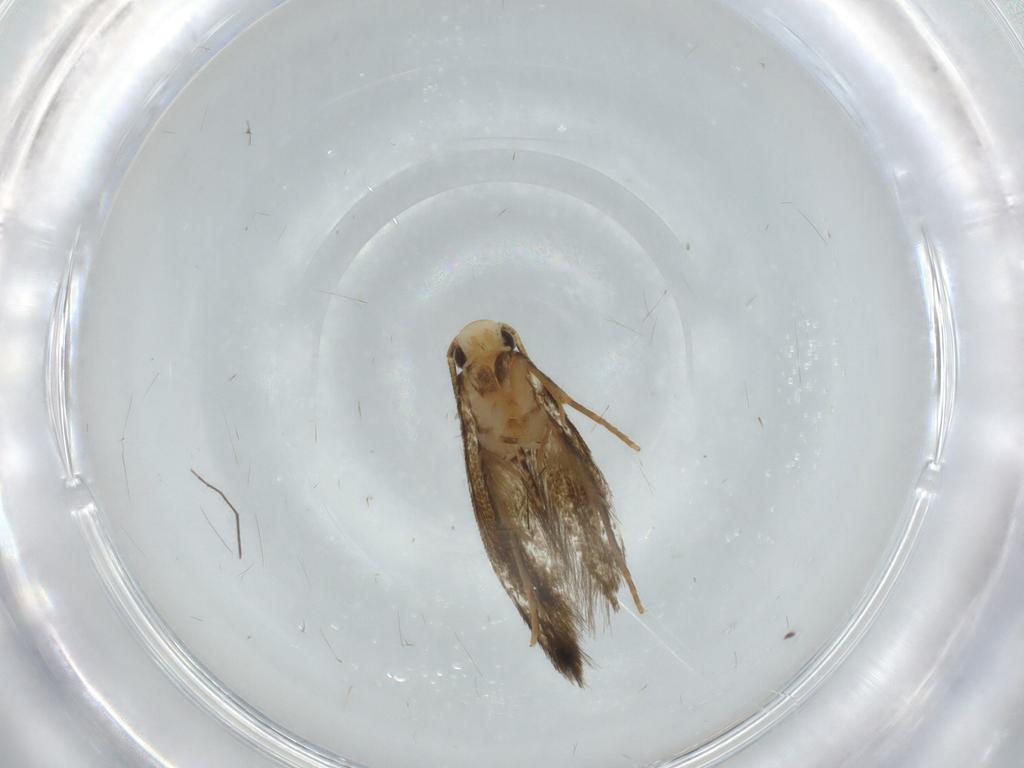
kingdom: Animalia
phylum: Arthropoda
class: Insecta
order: Lepidoptera
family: Tineidae
